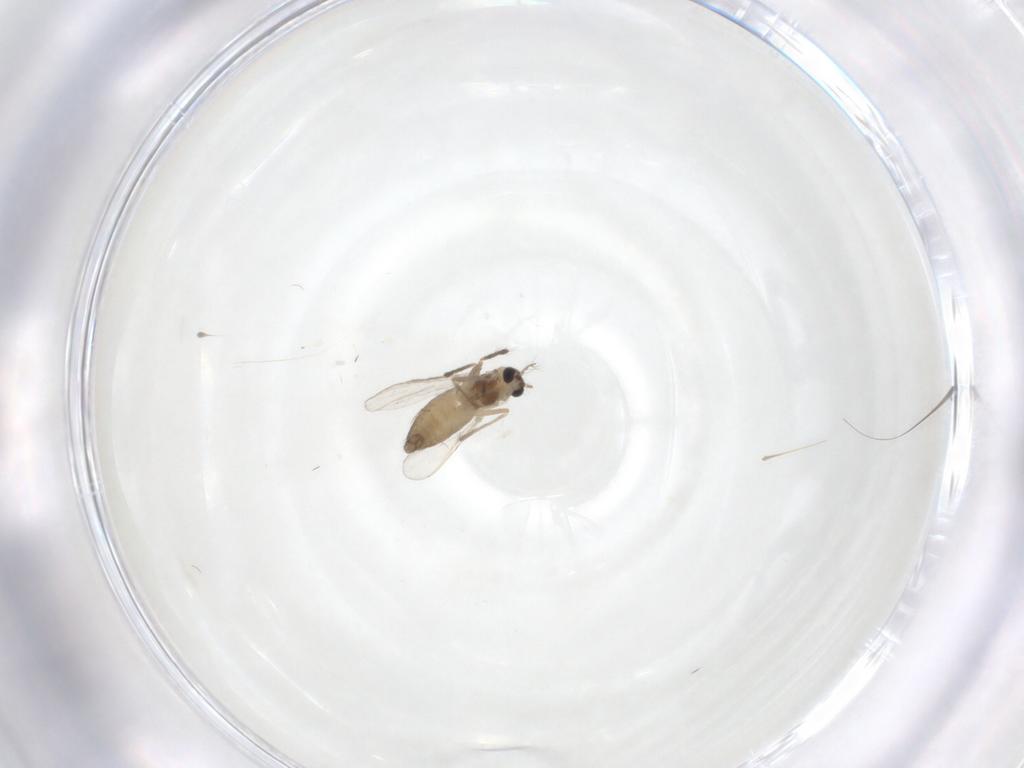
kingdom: Animalia
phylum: Arthropoda
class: Insecta
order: Diptera
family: Chironomidae
